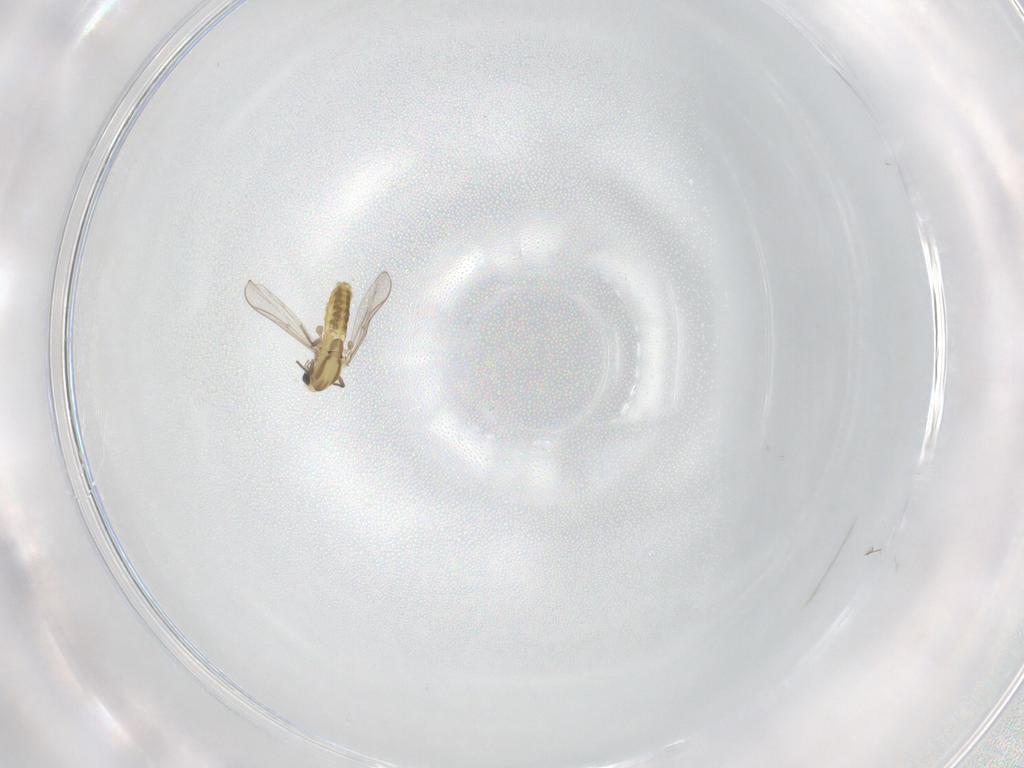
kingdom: Animalia
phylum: Arthropoda
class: Insecta
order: Diptera
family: Chironomidae
